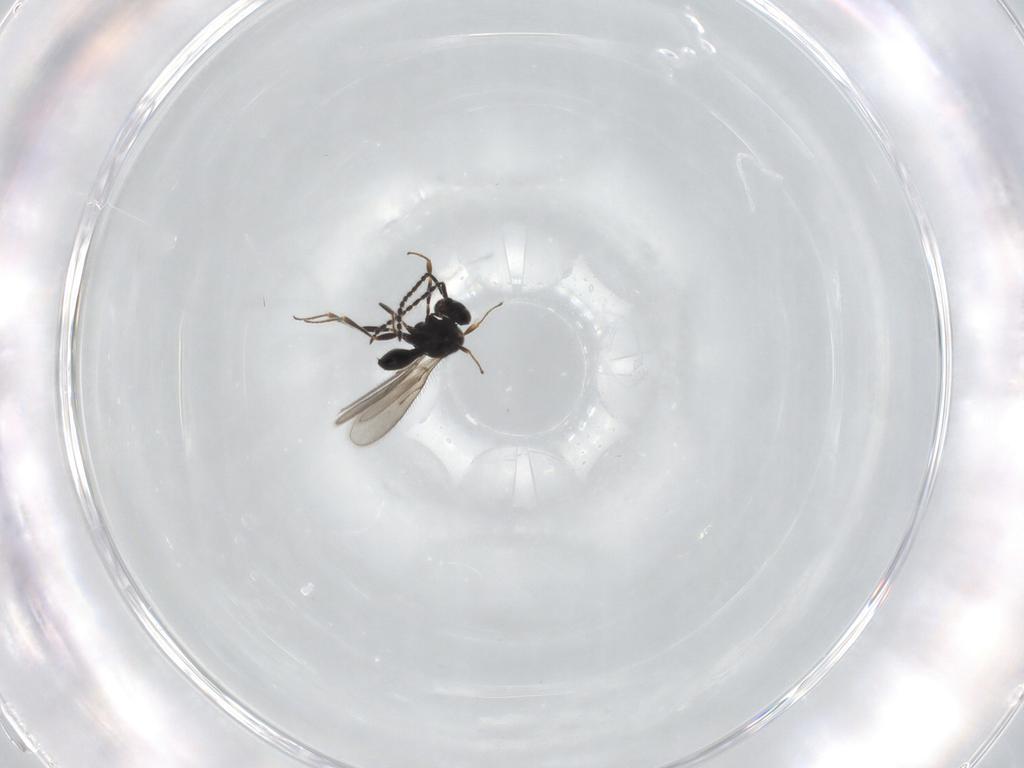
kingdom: Animalia
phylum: Arthropoda
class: Insecta
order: Hymenoptera
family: Scelionidae
